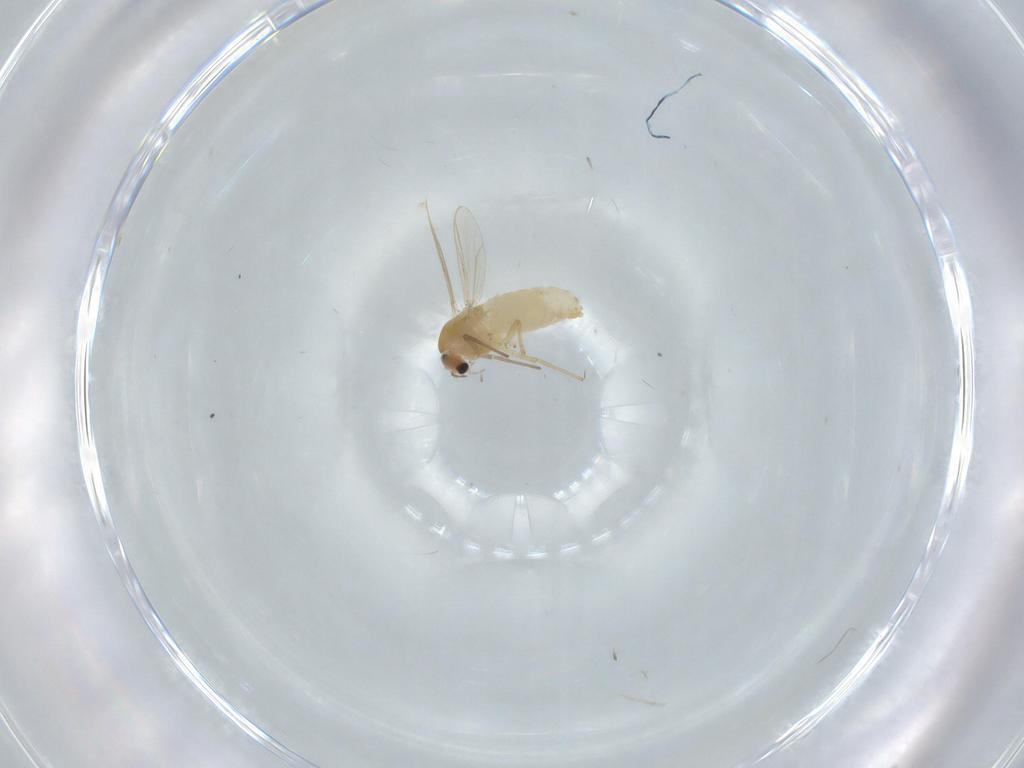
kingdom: Animalia
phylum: Arthropoda
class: Insecta
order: Diptera
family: Chironomidae
